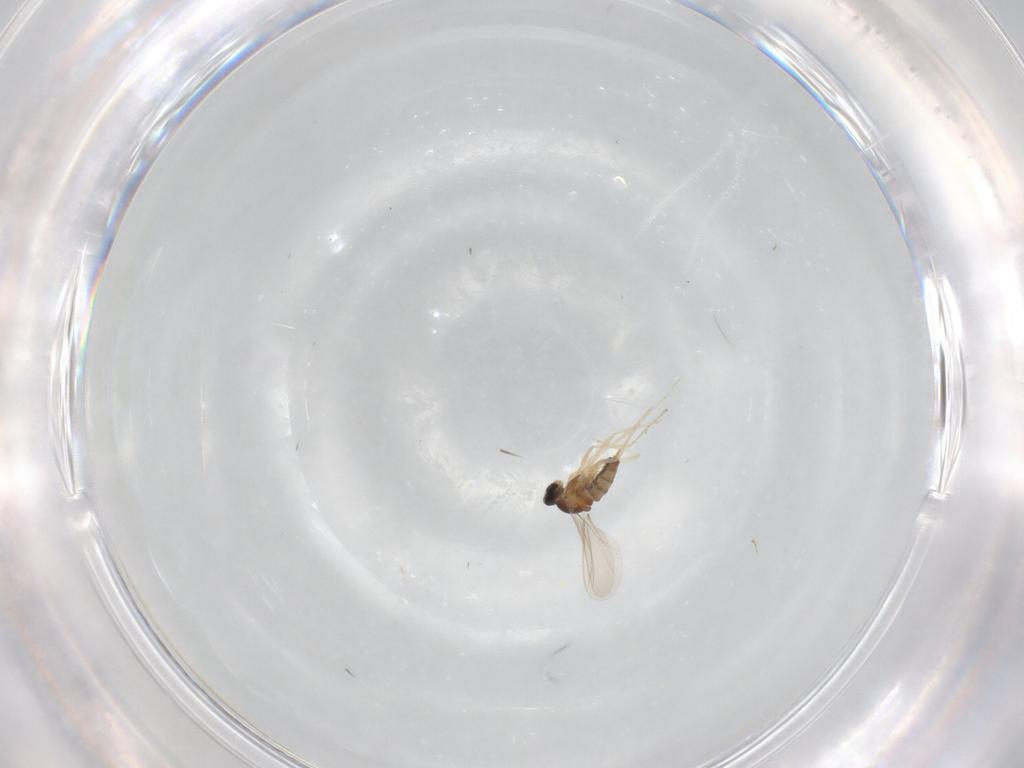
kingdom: Animalia
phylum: Arthropoda
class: Insecta
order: Diptera
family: Cecidomyiidae
